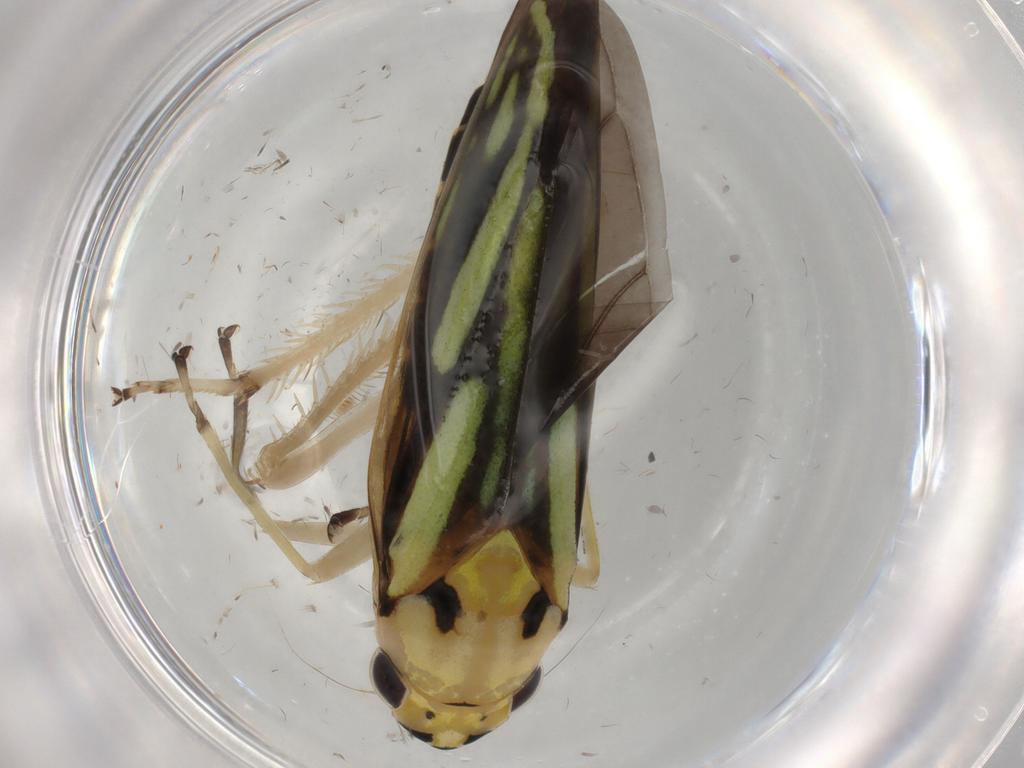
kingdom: Animalia
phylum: Arthropoda
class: Insecta
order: Hemiptera
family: Cicadellidae
